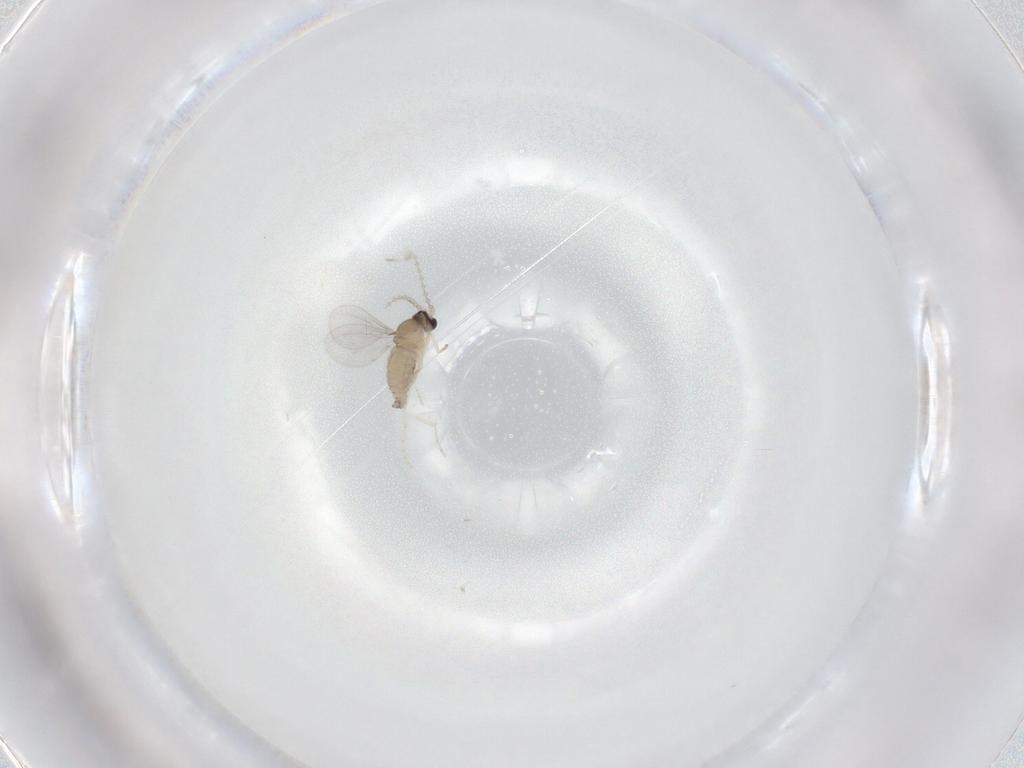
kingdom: Animalia
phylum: Arthropoda
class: Insecta
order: Diptera
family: Cecidomyiidae
